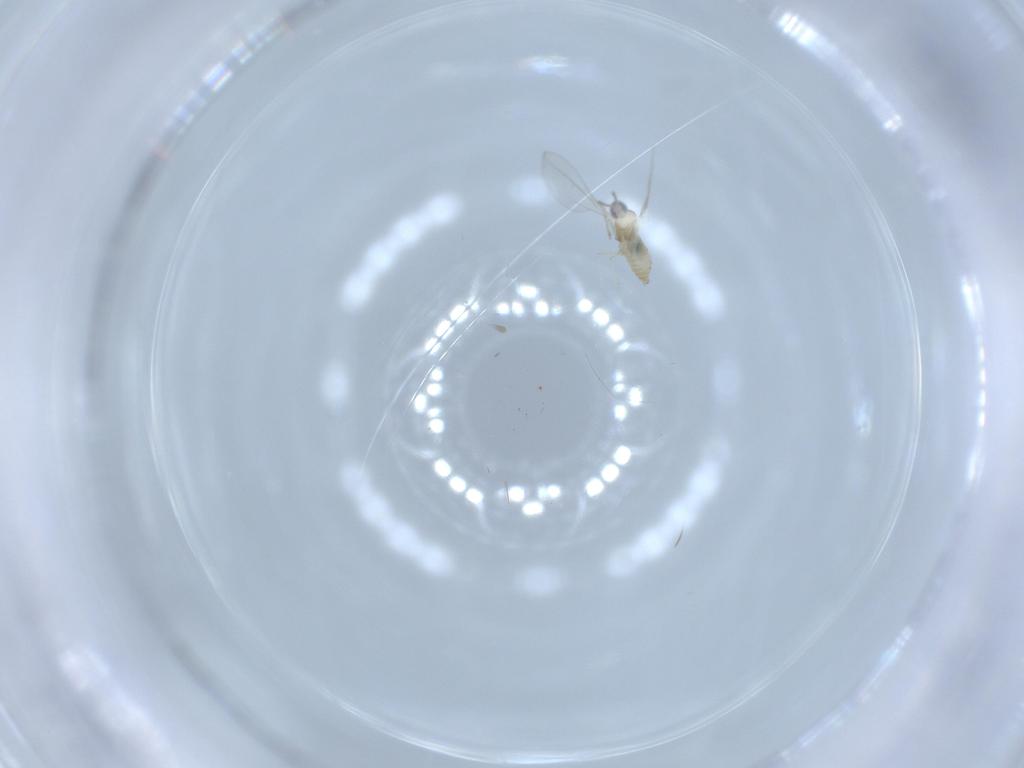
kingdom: Animalia
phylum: Arthropoda
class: Insecta
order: Diptera
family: Cecidomyiidae
